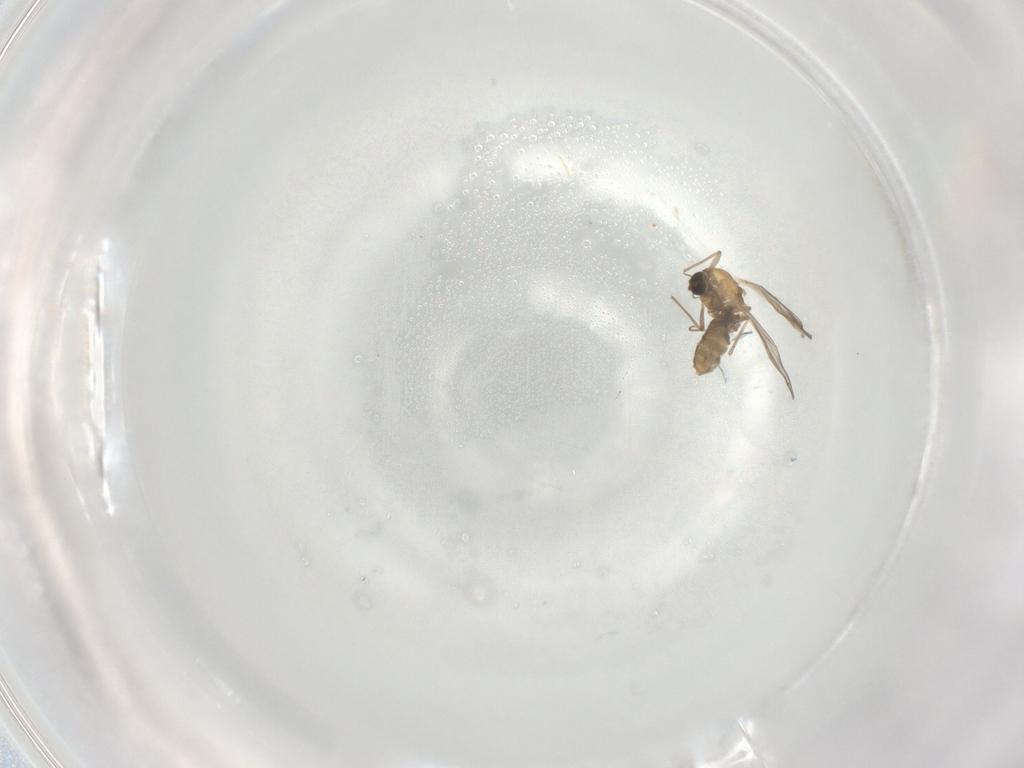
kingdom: Animalia
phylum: Arthropoda
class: Insecta
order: Diptera
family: Chironomidae
